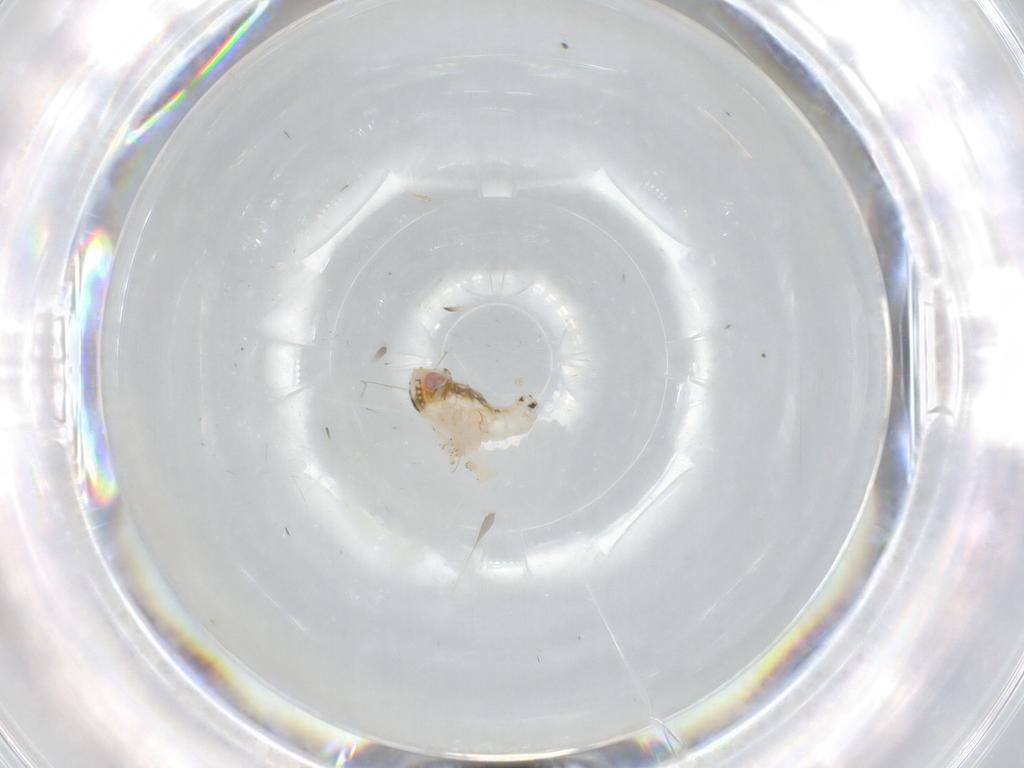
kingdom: Animalia
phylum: Arthropoda
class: Insecta
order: Hemiptera
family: Nogodinidae
